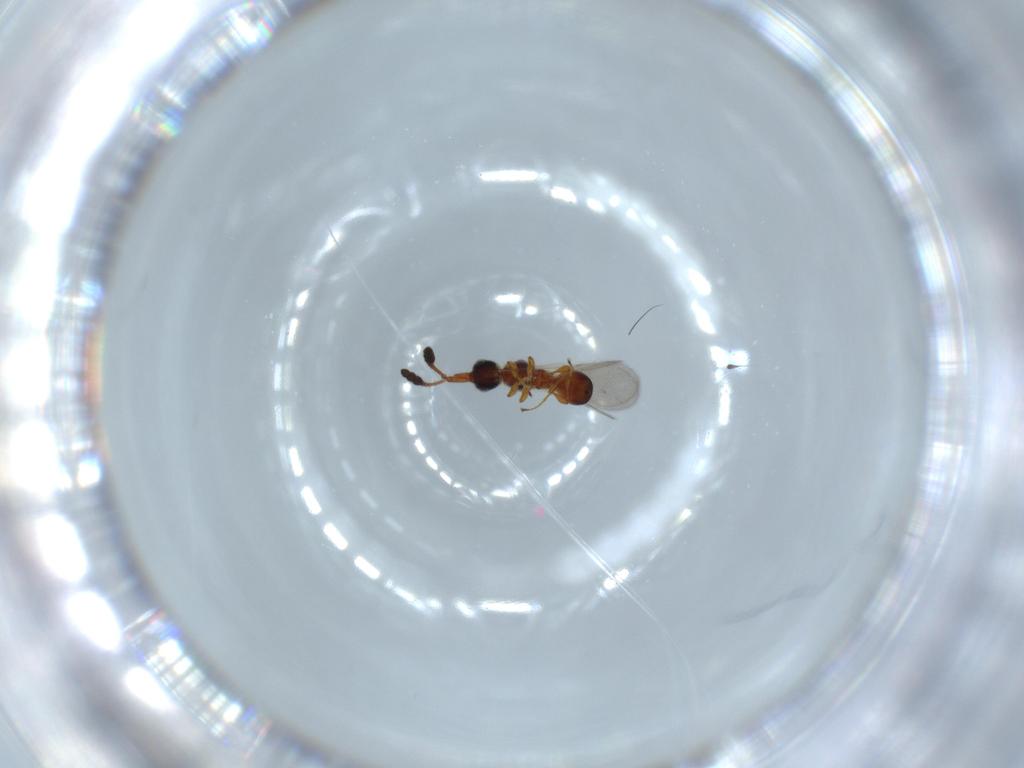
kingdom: Animalia
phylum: Arthropoda
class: Insecta
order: Hymenoptera
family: Diapriidae
